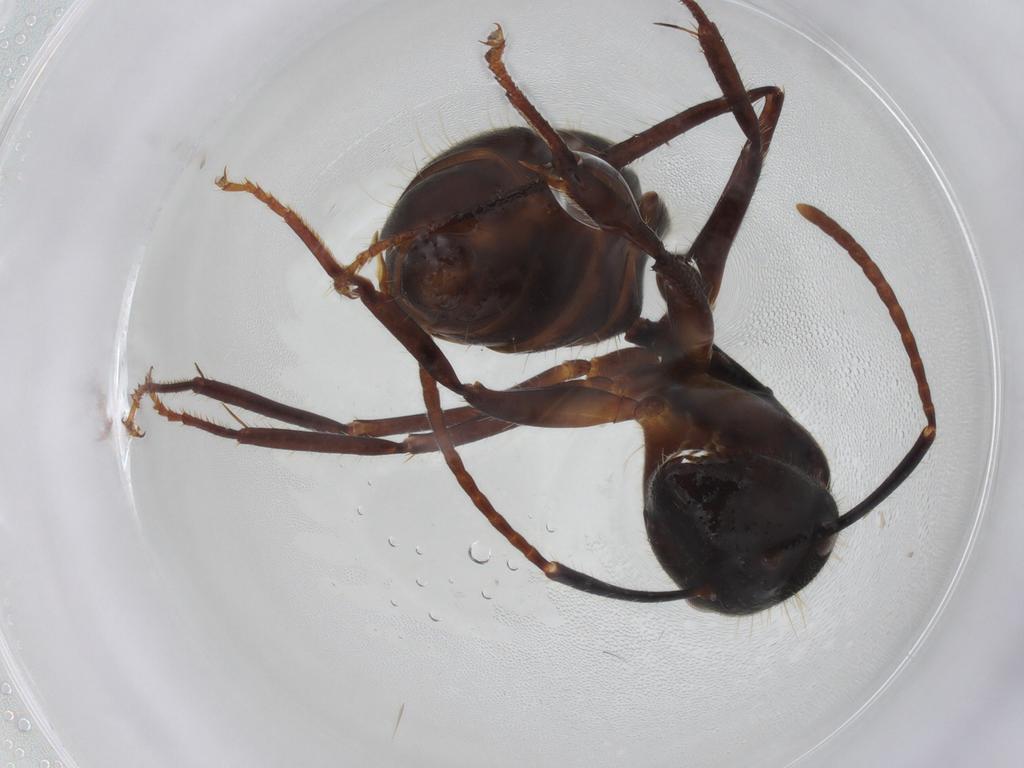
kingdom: Animalia
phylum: Arthropoda
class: Insecta
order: Hymenoptera
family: Formicidae
